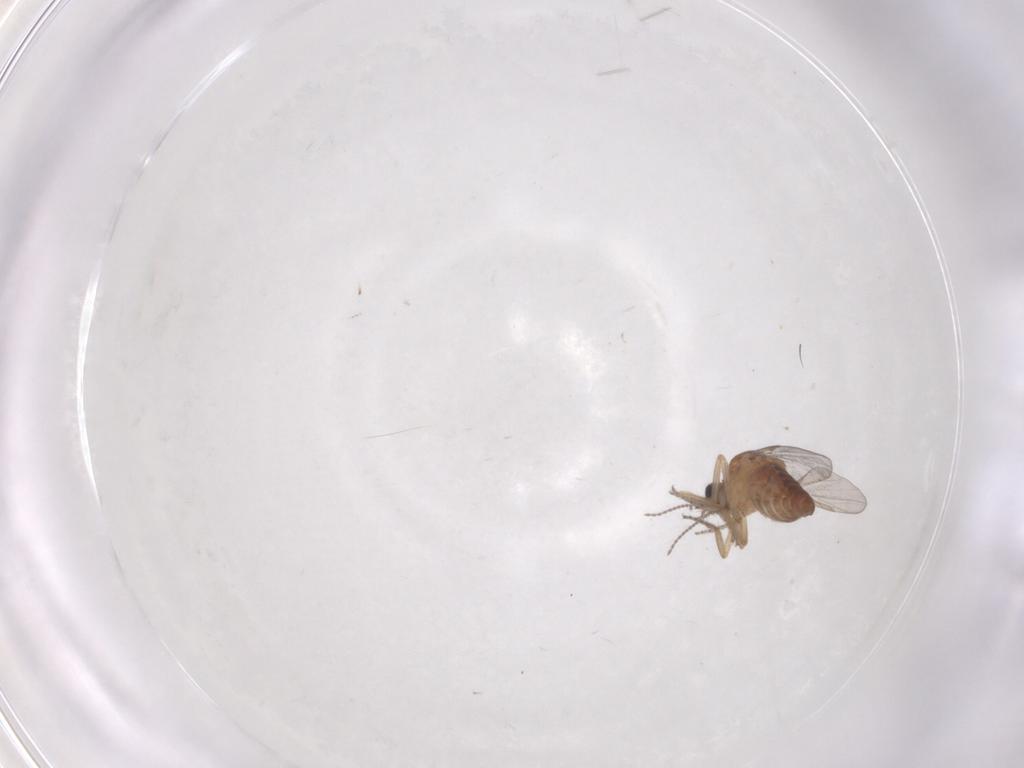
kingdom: Animalia
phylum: Arthropoda
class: Insecta
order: Diptera
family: Ceratopogonidae
